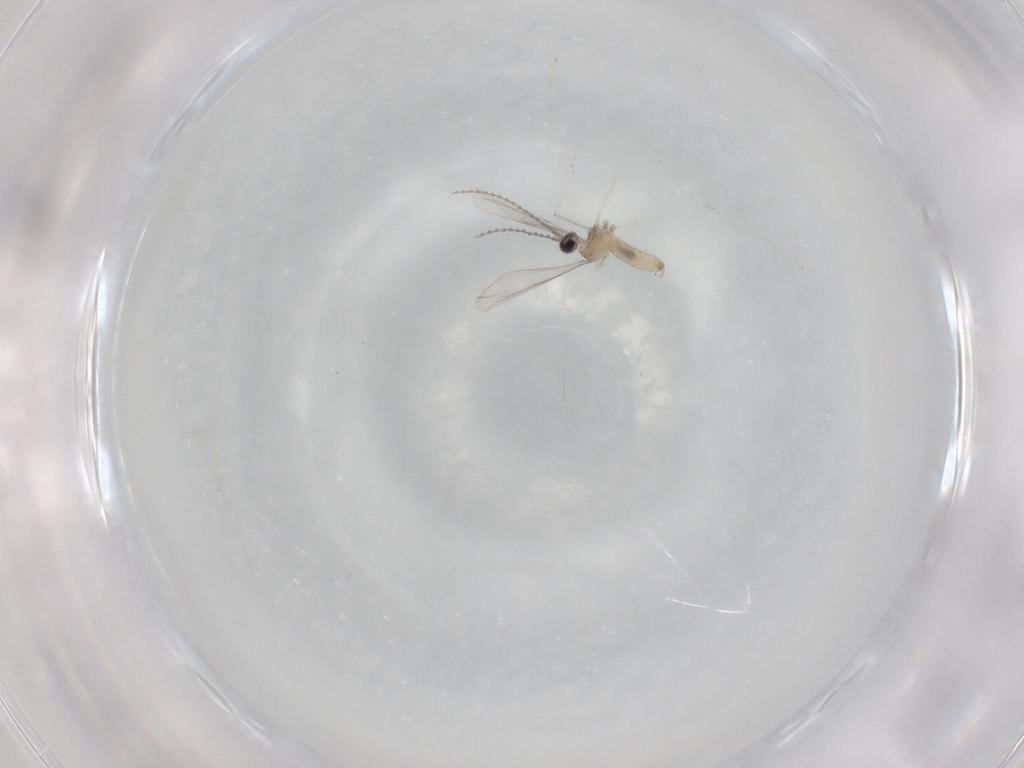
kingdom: Animalia
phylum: Arthropoda
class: Insecta
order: Diptera
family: Cecidomyiidae
